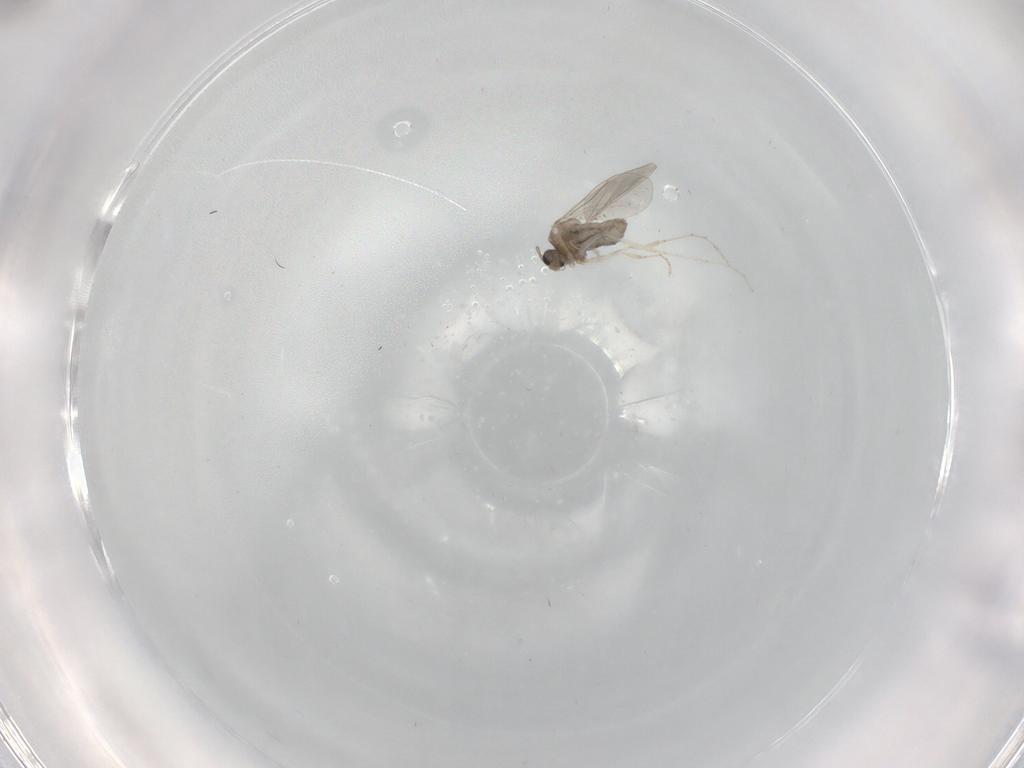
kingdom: Animalia
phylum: Arthropoda
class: Insecta
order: Diptera
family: Cecidomyiidae
